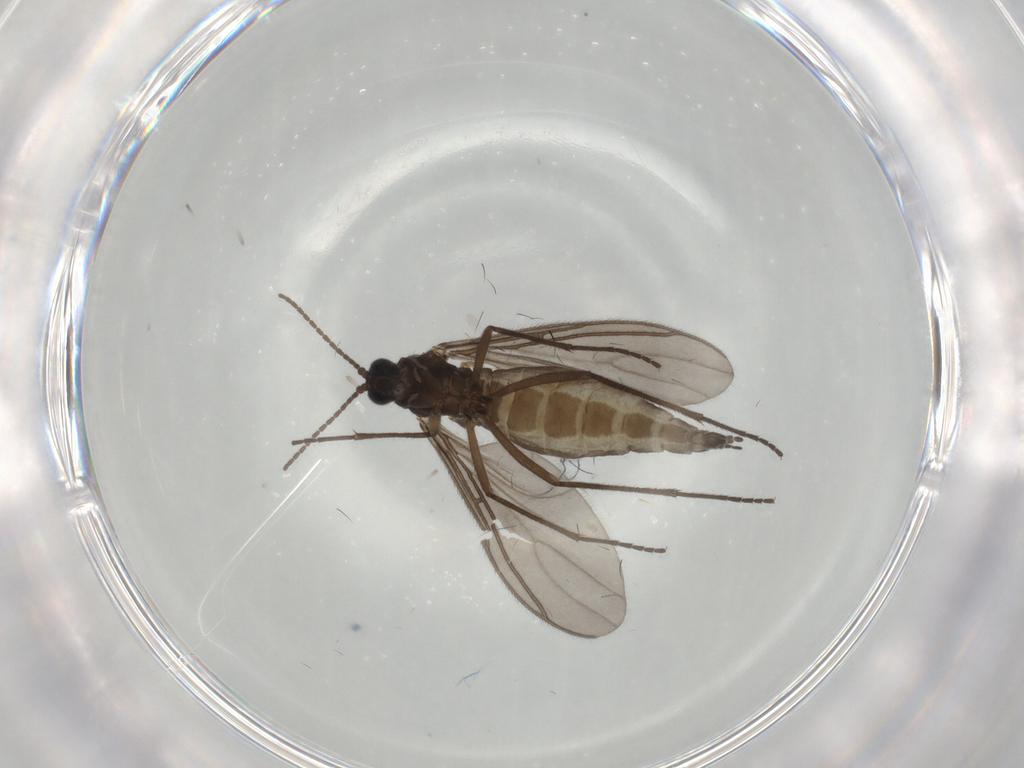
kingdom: Animalia
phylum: Arthropoda
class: Insecta
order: Diptera
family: Sciaridae
